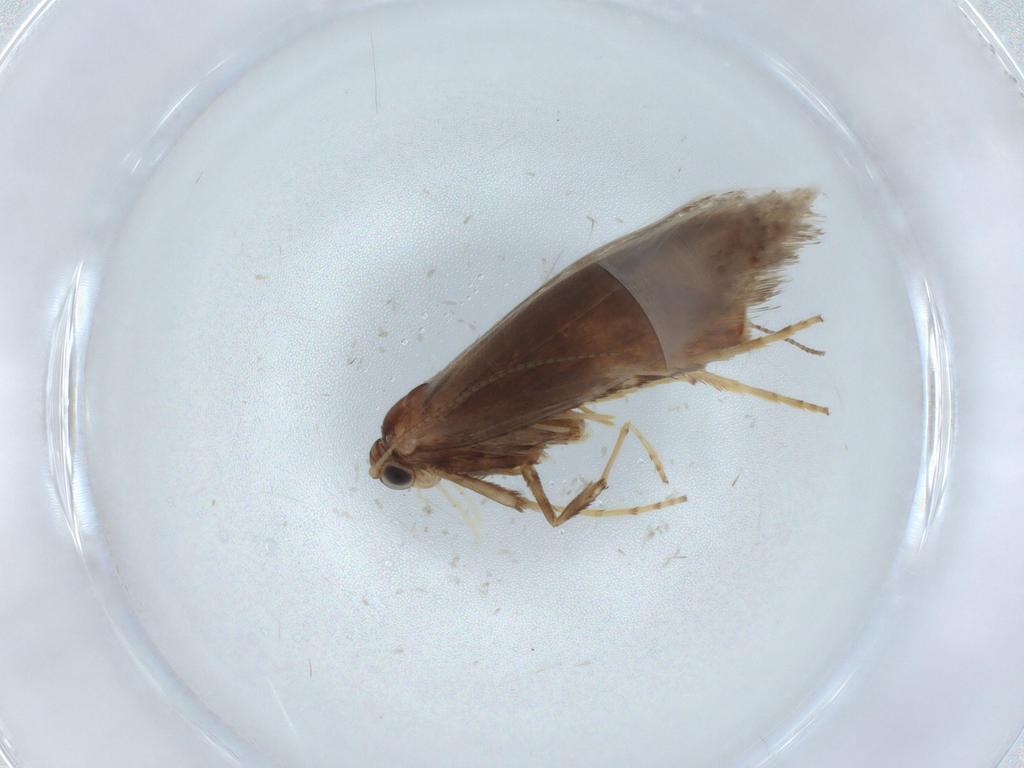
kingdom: Animalia
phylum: Arthropoda
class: Insecta
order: Lepidoptera
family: Gracillariidae
